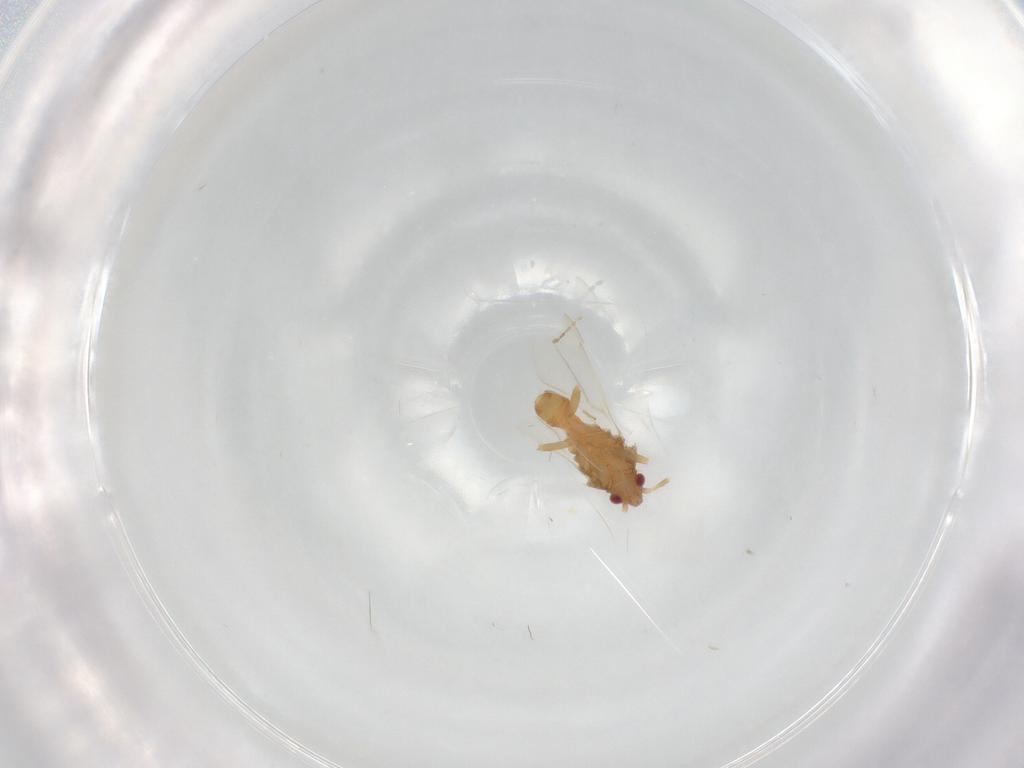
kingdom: Animalia
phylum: Arthropoda
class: Insecta
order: Hemiptera
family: Ceratocombidae
